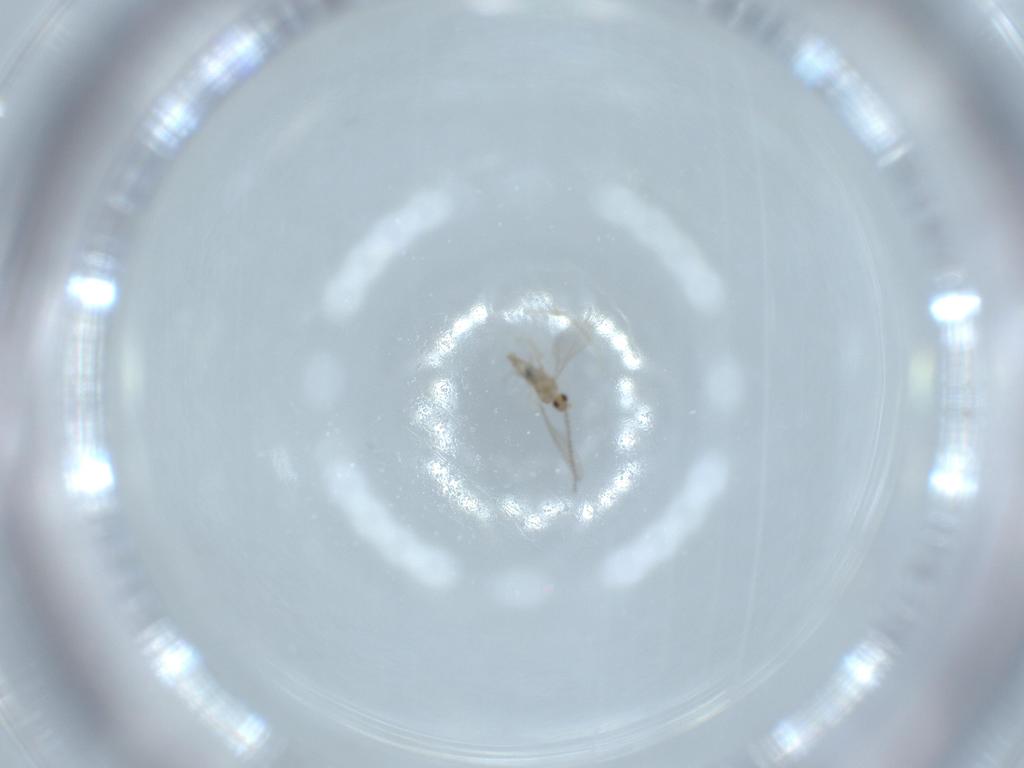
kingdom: Animalia
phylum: Arthropoda
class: Insecta
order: Diptera
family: Cecidomyiidae
